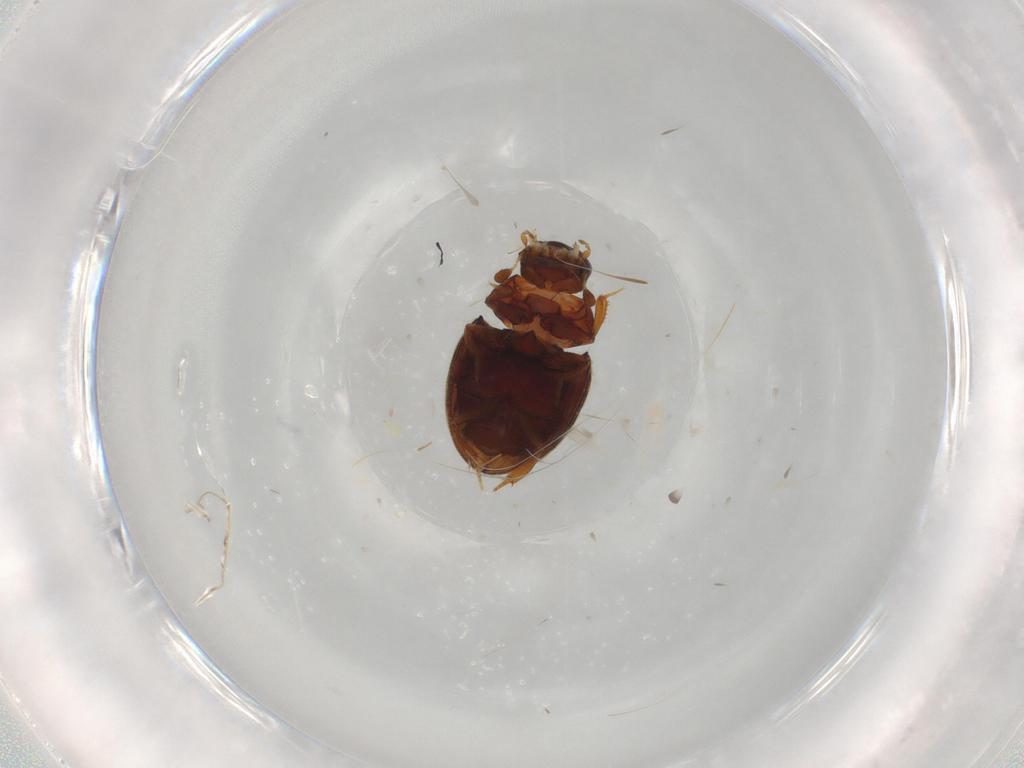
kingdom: Animalia
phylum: Arthropoda
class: Insecta
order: Coleoptera
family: Hydrophilidae
